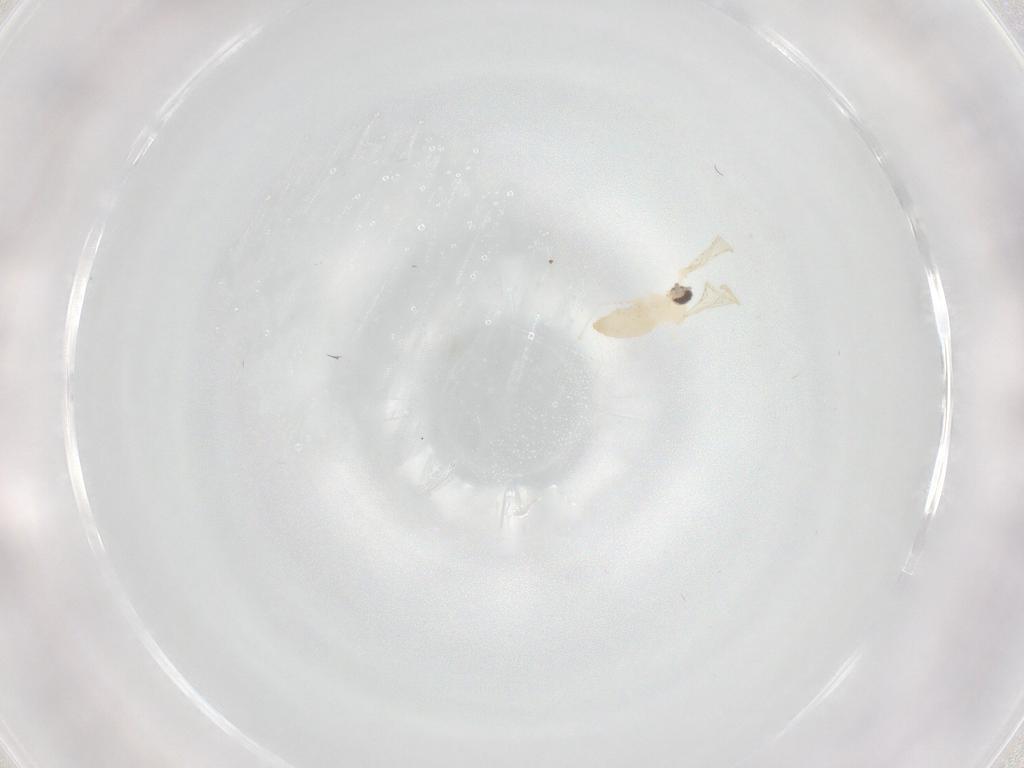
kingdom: Animalia
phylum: Arthropoda
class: Insecta
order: Diptera
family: Cecidomyiidae
